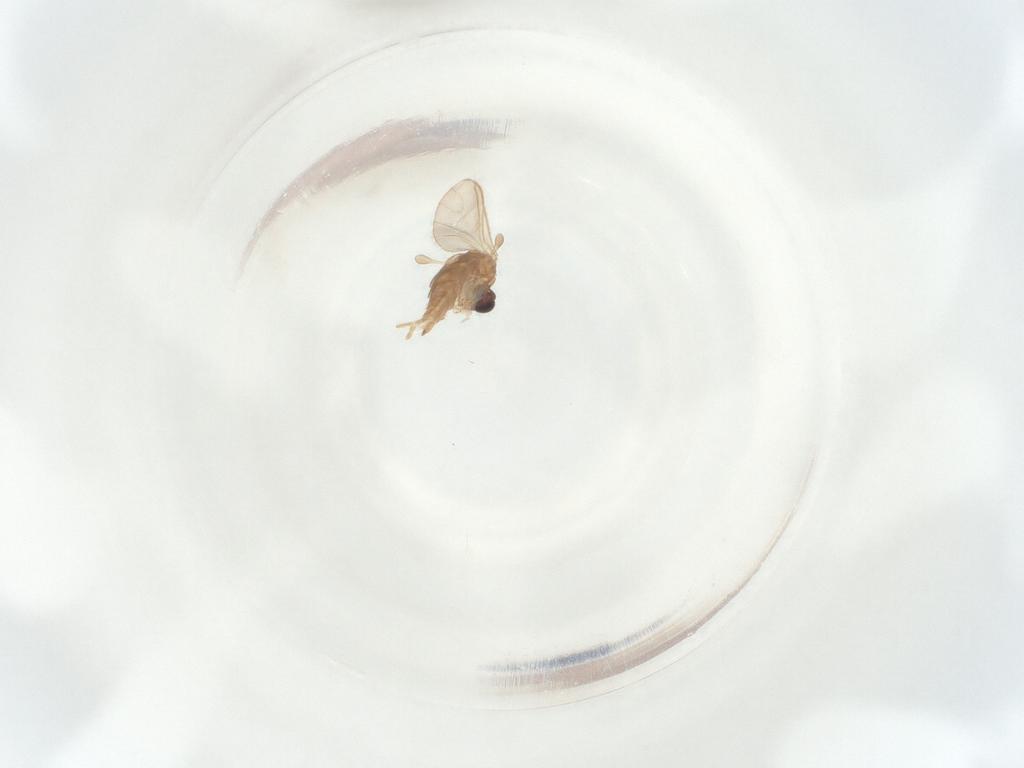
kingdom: Animalia
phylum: Arthropoda
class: Insecta
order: Diptera
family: Sciaridae
